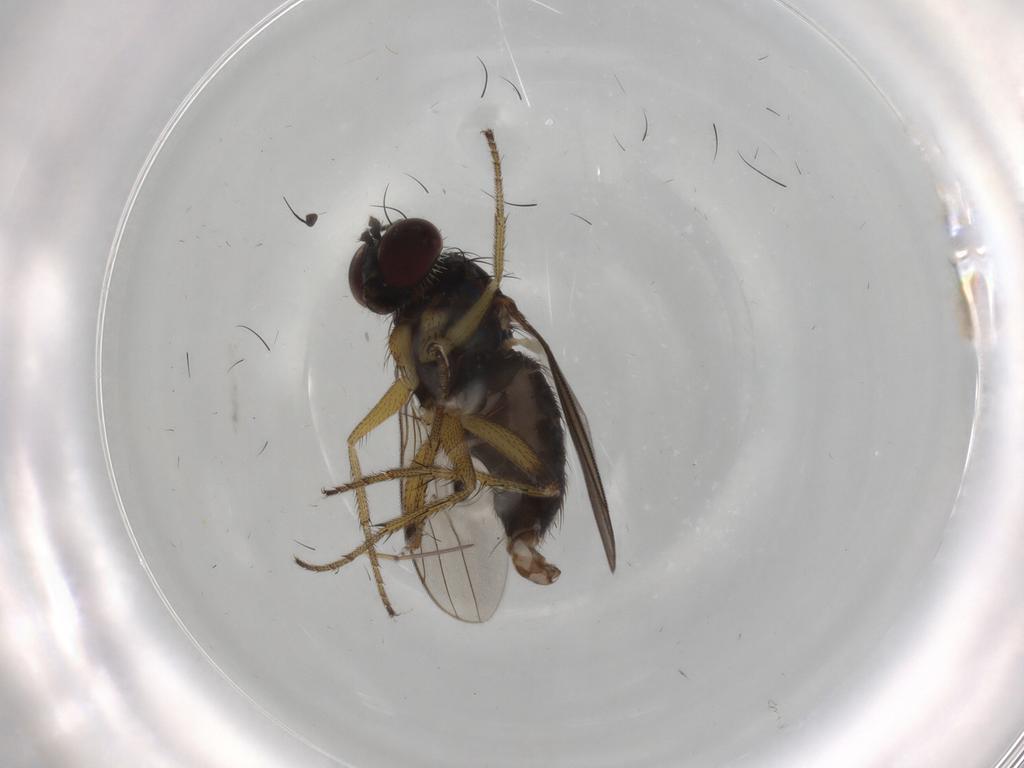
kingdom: Animalia
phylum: Arthropoda
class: Insecta
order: Diptera
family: Dolichopodidae
